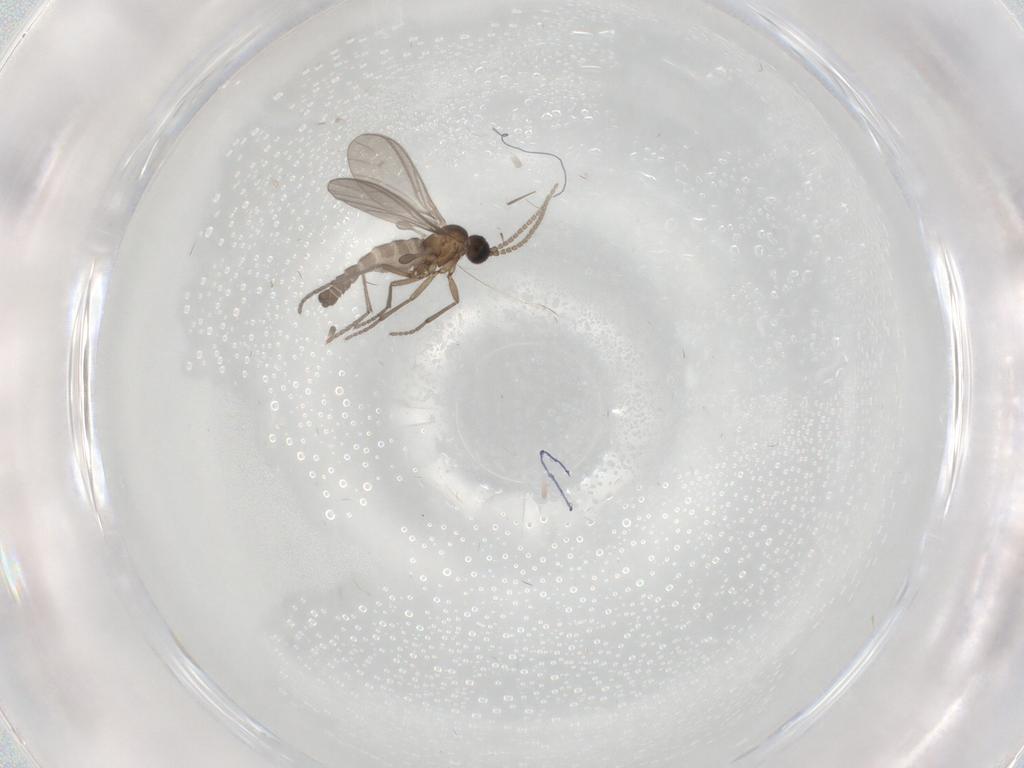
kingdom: Animalia
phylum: Arthropoda
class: Insecta
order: Diptera
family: Sciaridae
